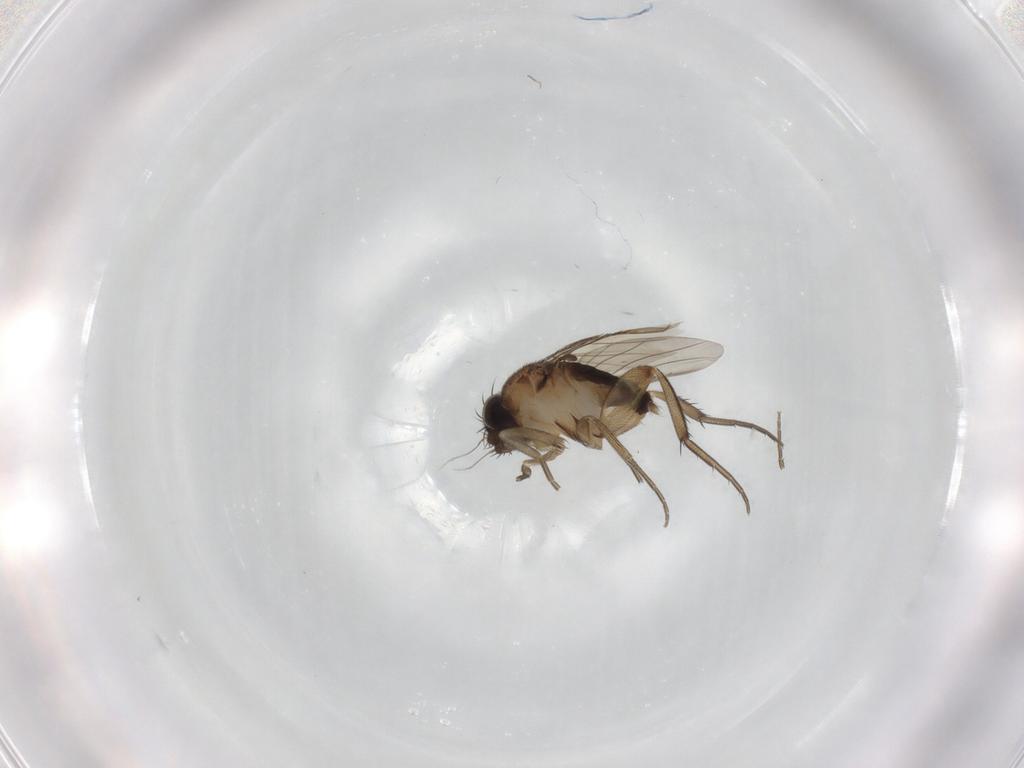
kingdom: Animalia
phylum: Arthropoda
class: Insecta
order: Diptera
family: Phoridae
